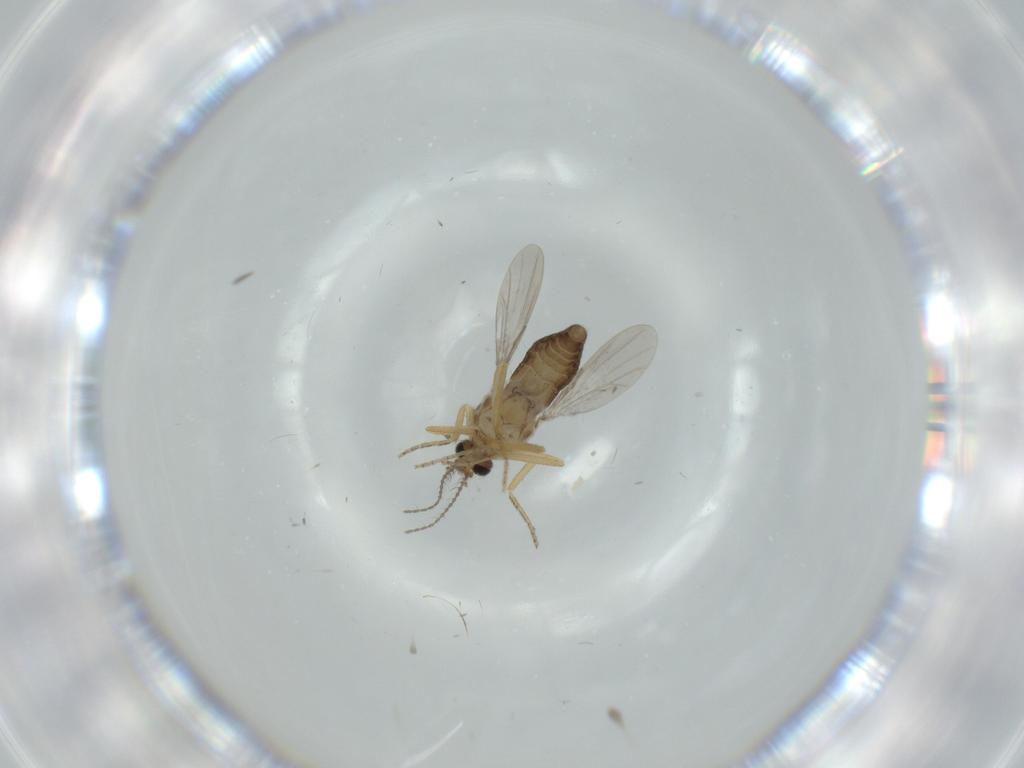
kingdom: Animalia
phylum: Arthropoda
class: Insecta
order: Diptera
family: Ceratopogonidae
